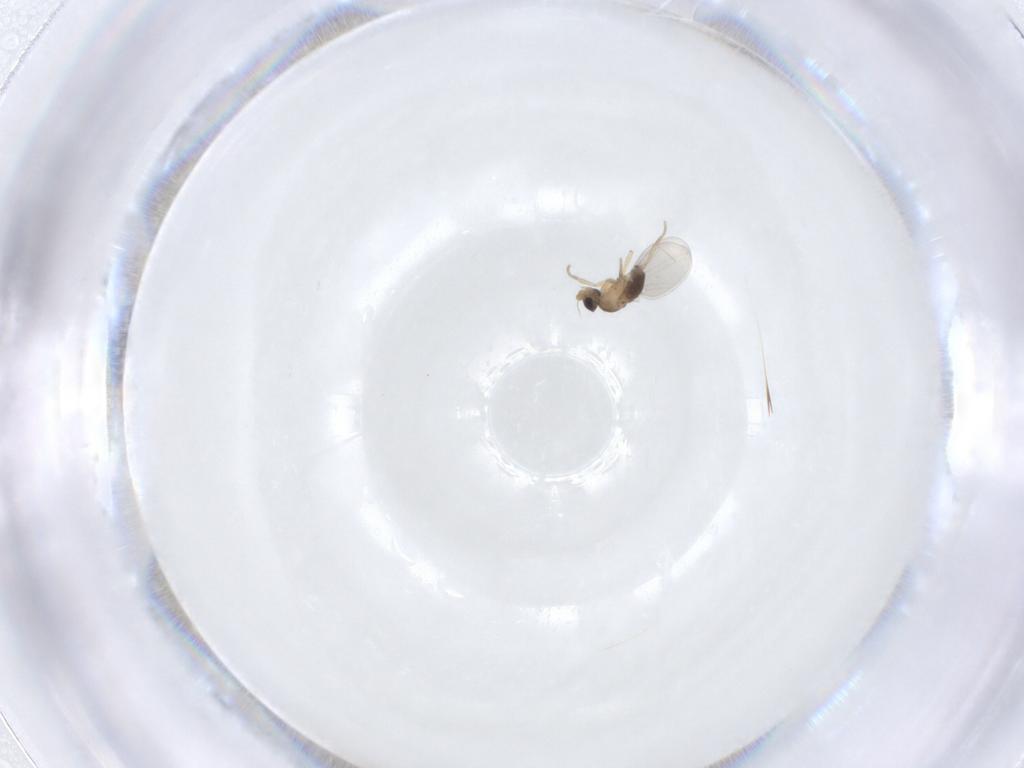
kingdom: Animalia
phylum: Arthropoda
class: Insecta
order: Diptera
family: Phoridae
